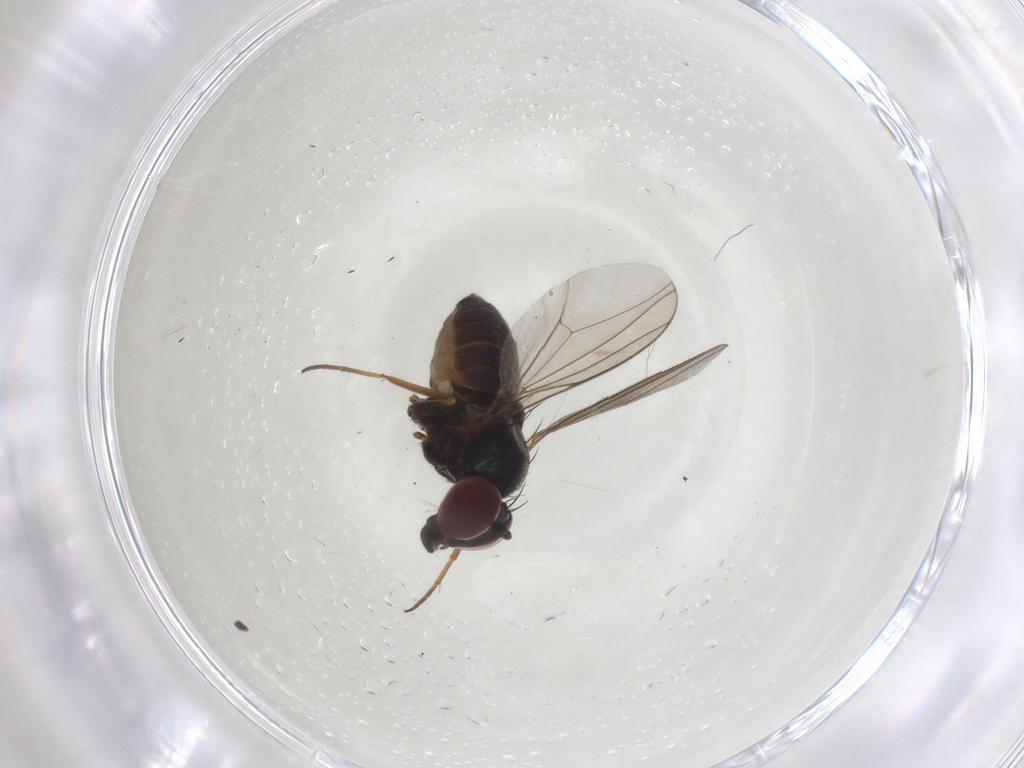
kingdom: Animalia
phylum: Arthropoda
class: Insecta
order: Diptera
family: Dolichopodidae
